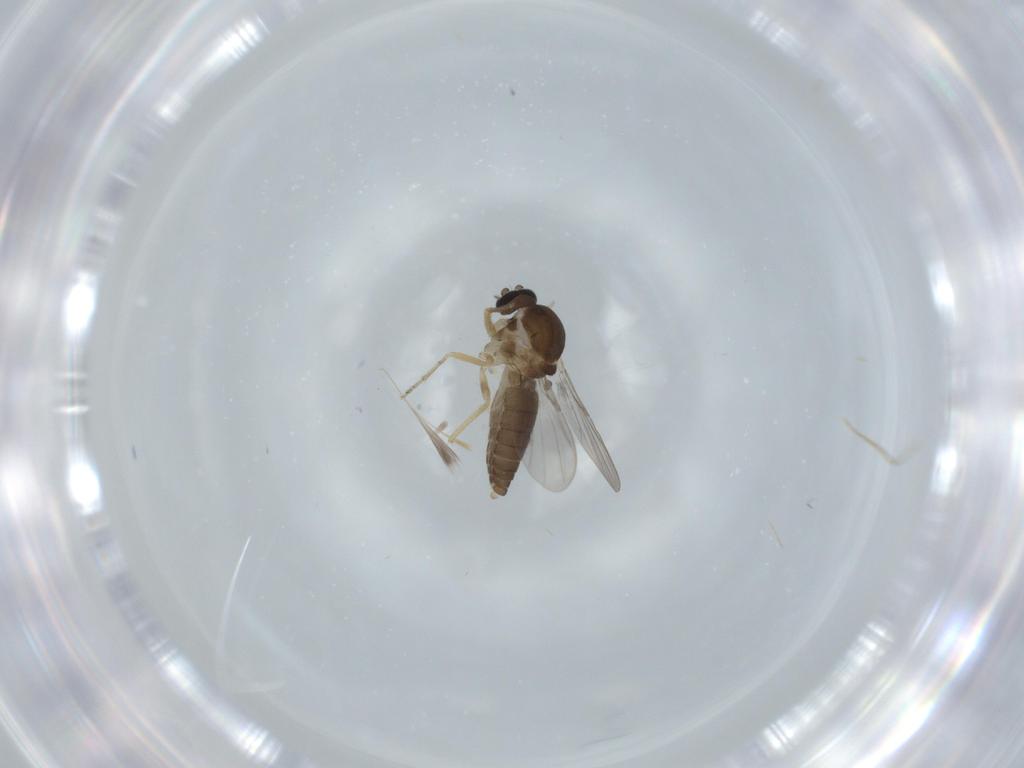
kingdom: Animalia
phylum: Arthropoda
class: Insecta
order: Diptera
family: Ceratopogonidae
